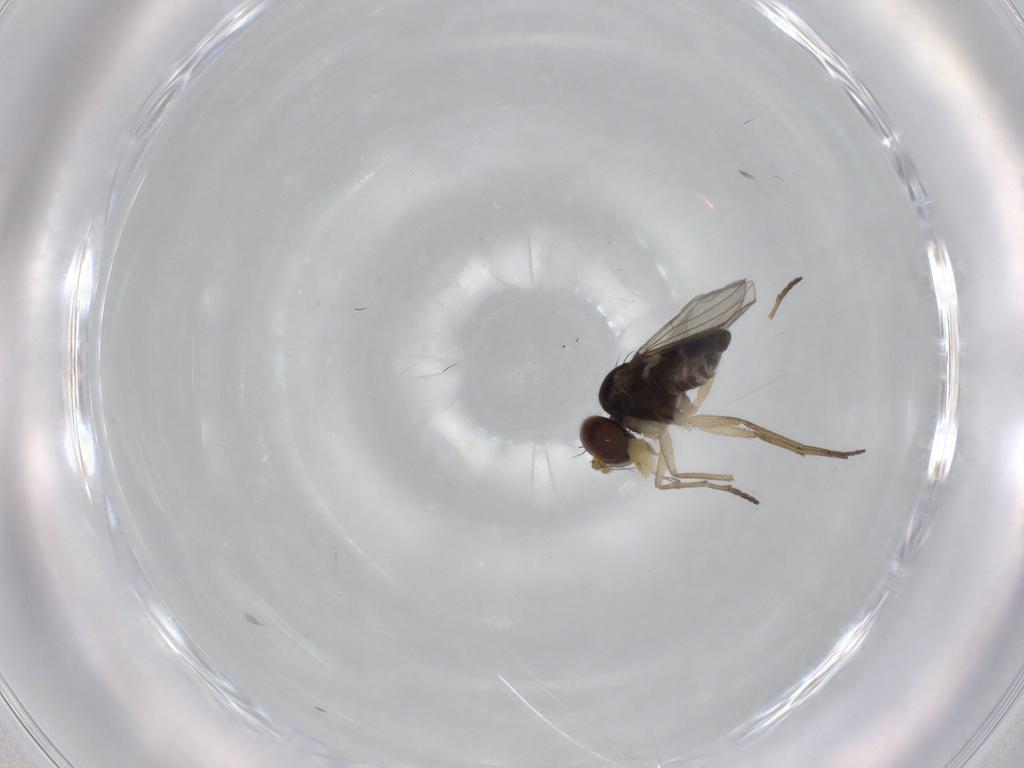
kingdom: Animalia
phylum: Arthropoda
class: Insecta
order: Diptera
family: Dolichopodidae
